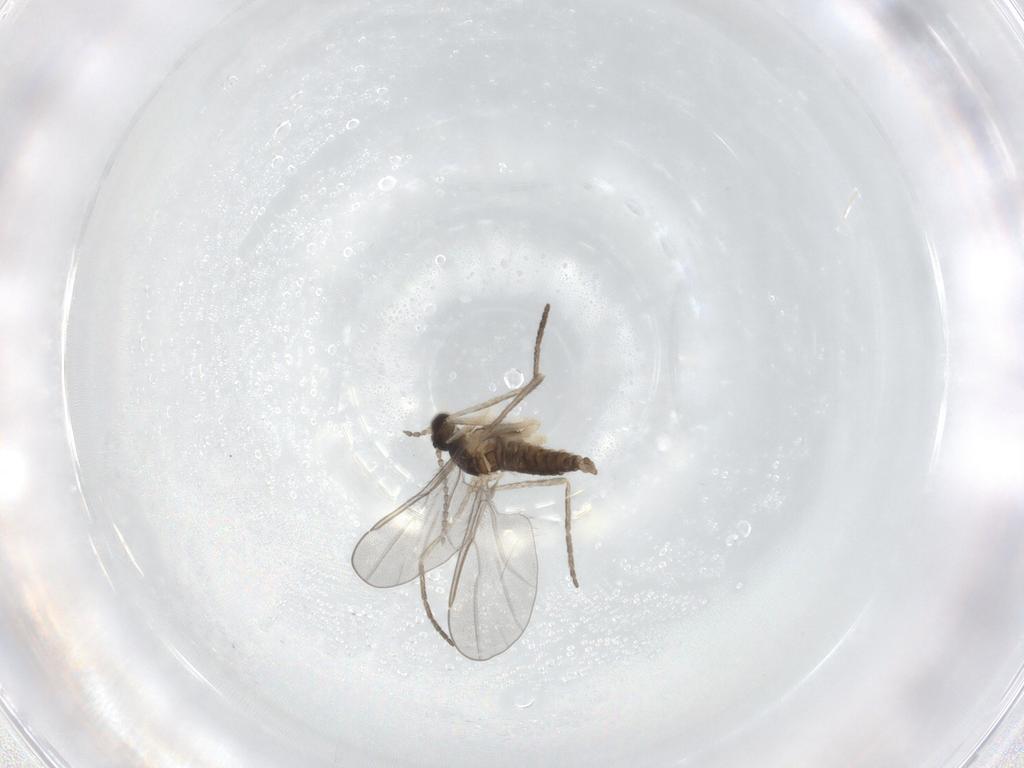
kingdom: Animalia
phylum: Arthropoda
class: Insecta
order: Diptera
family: Cecidomyiidae
